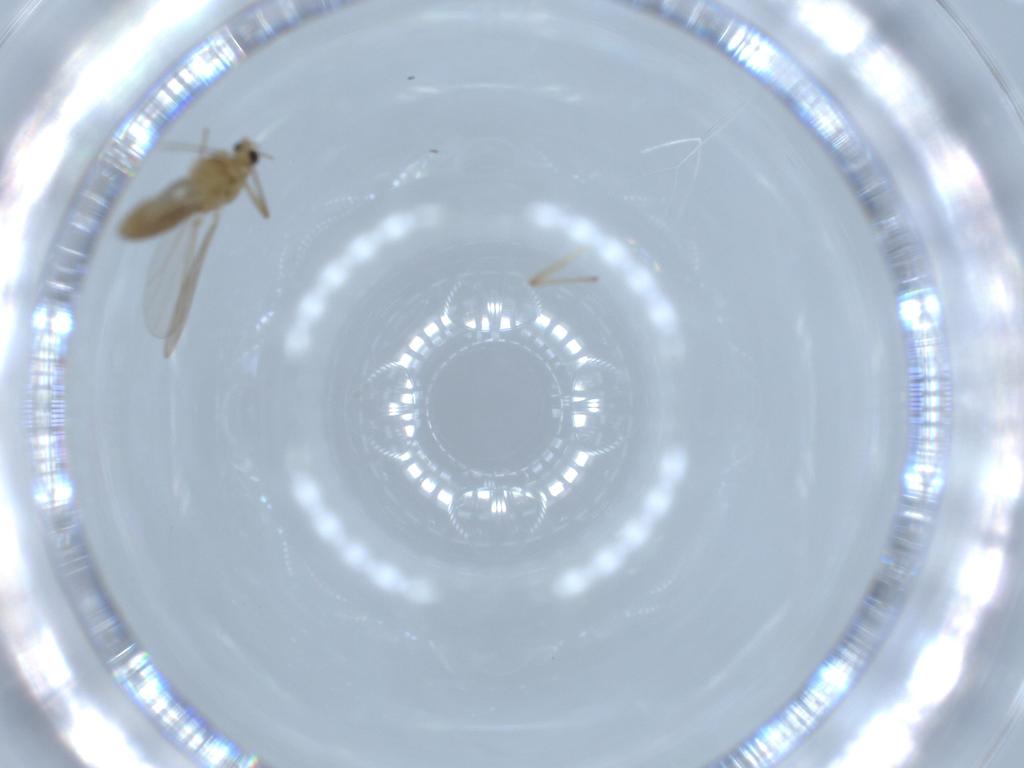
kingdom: Animalia
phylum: Arthropoda
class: Insecta
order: Diptera
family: Chironomidae
